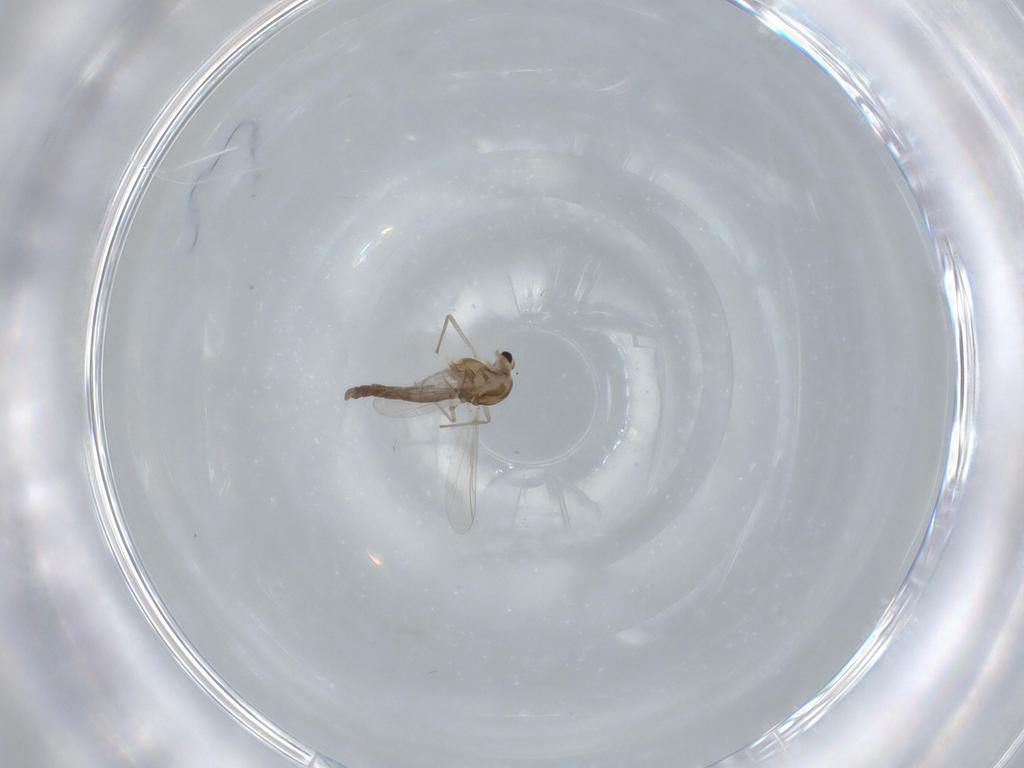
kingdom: Animalia
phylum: Arthropoda
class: Insecta
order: Diptera
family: Chironomidae
